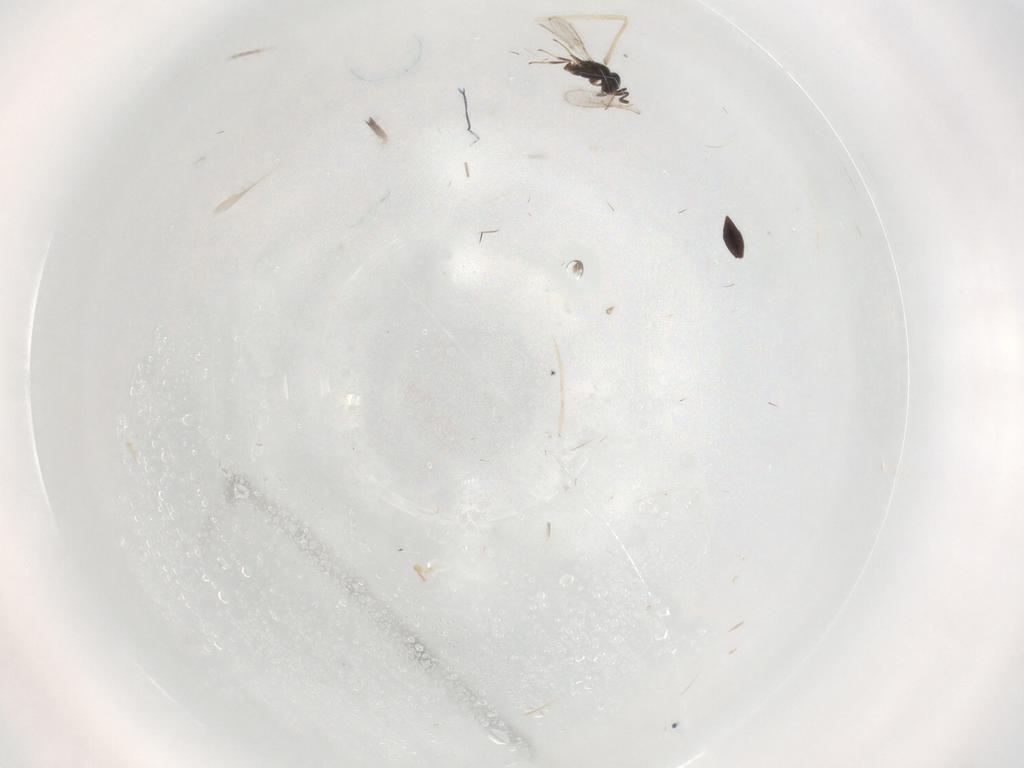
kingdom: Animalia
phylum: Arthropoda
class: Insecta
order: Hymenoptera
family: Scelionidae
